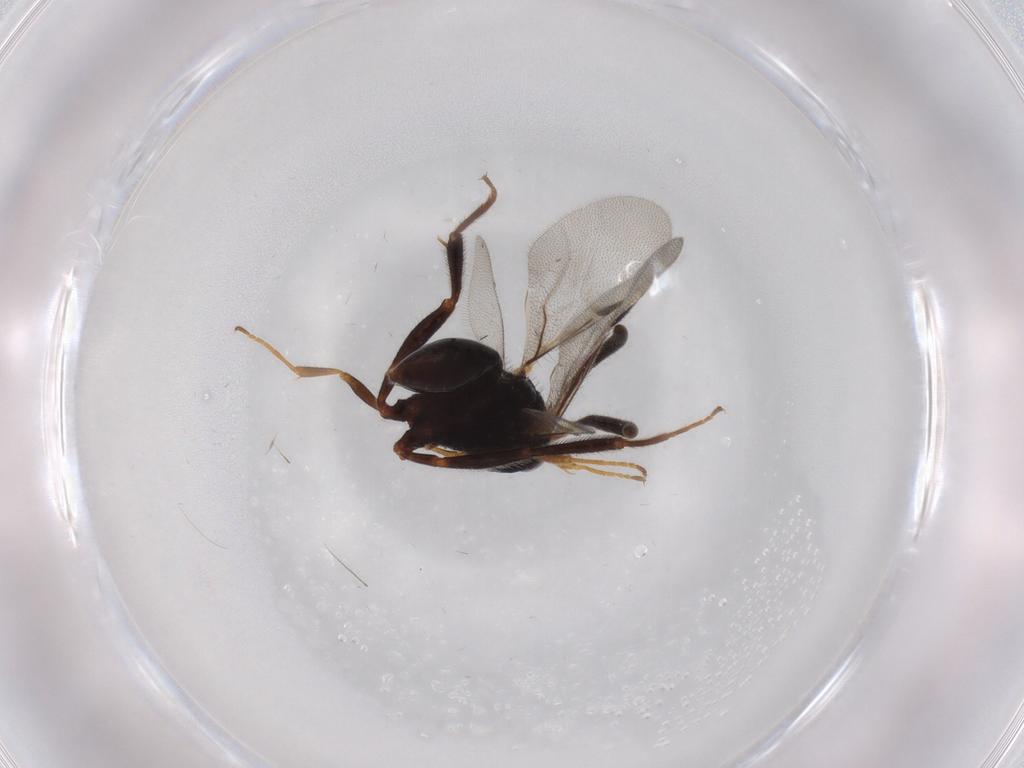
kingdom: Animalia
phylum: Arthropoda
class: Insecta
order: Hymenoptera
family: Evaniidae
